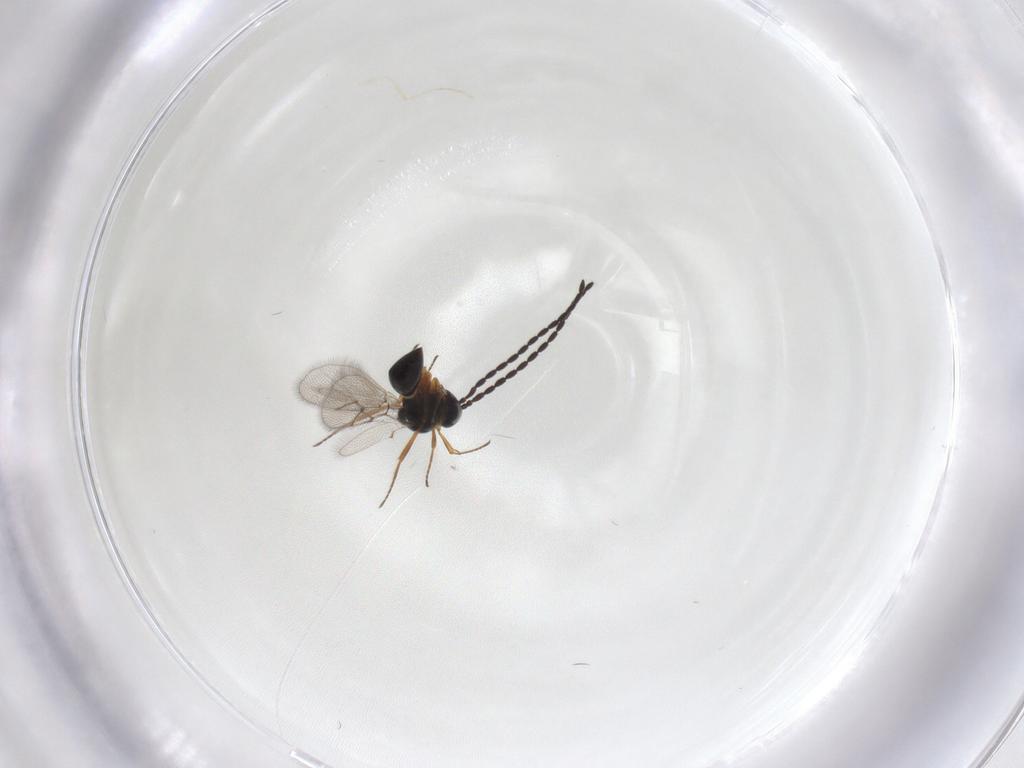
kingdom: Animalia
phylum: Arthropoda
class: Insecta
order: Hymenoptera
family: Figitidae
